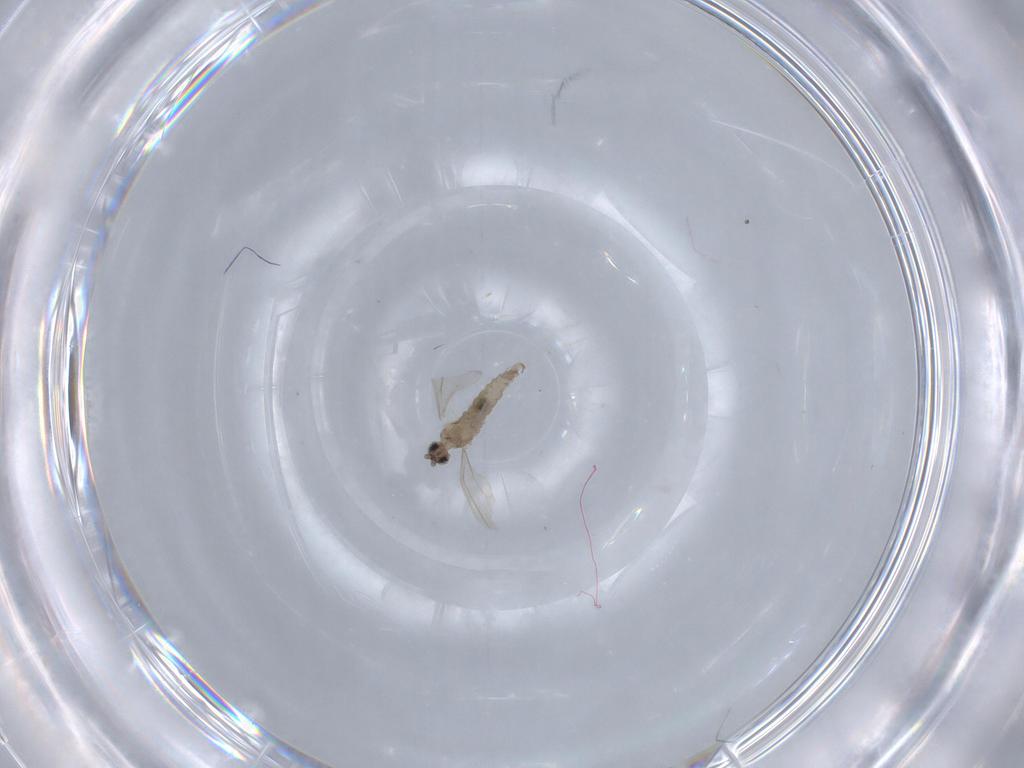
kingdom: Animalia
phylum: Arthropoda
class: Insecta
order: Diptera
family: Cecidomyiidae
